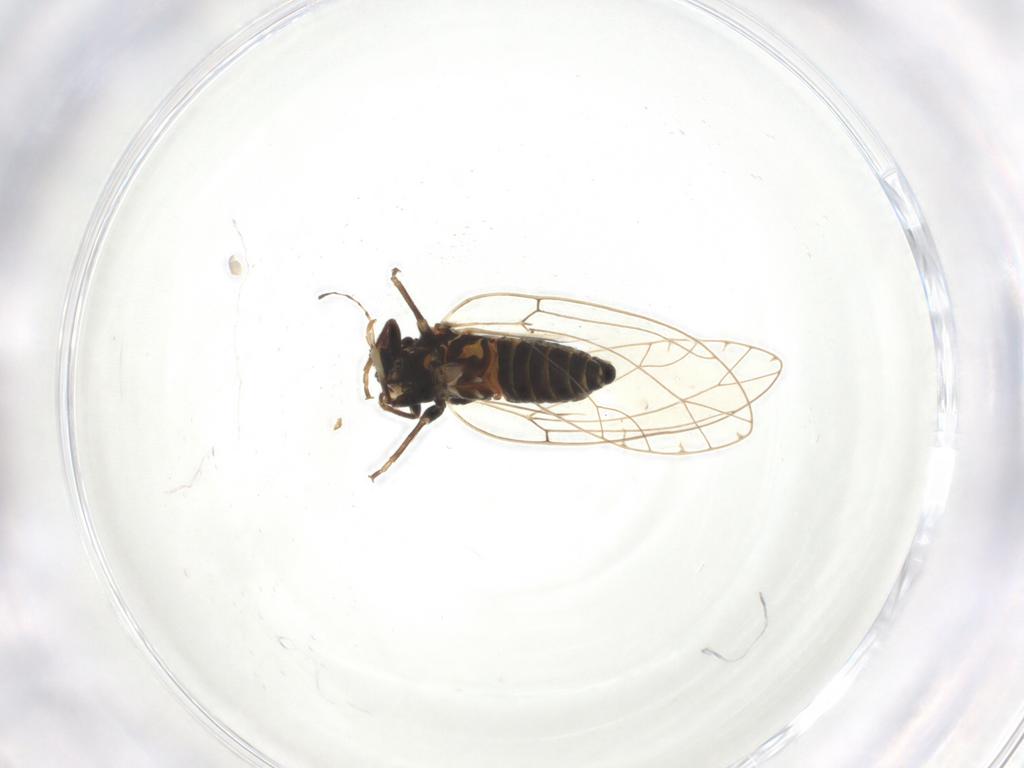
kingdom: Animalia
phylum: Arthropoda
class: Insecta
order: Hemiptera
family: Triozidae
